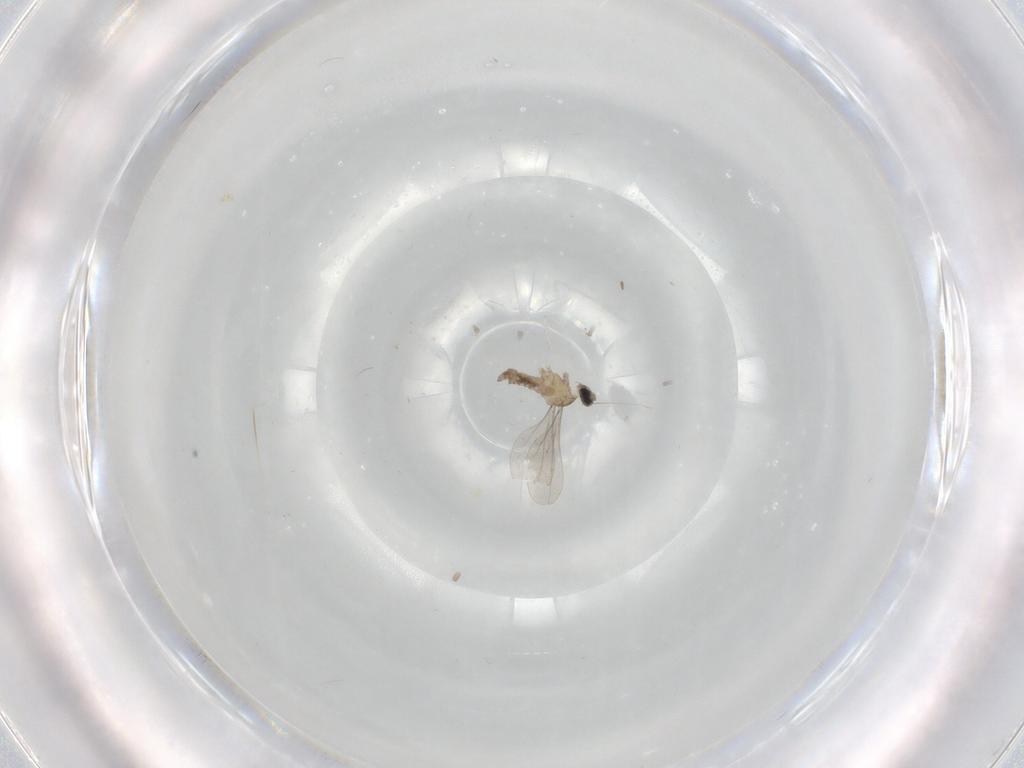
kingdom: Animalia
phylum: Arthropoda
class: Insecta
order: Diptera
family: Cecidomyiidae
